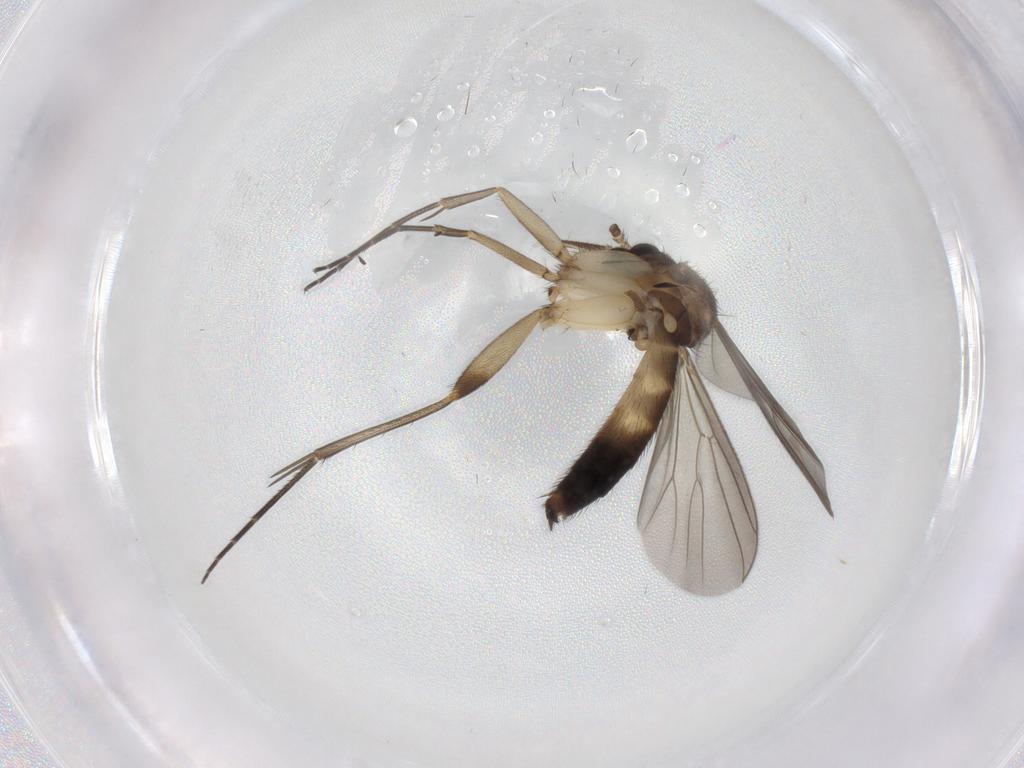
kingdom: Animalia
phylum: Arthropoda
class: Insecta
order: Diptera
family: Mycetophilidae
